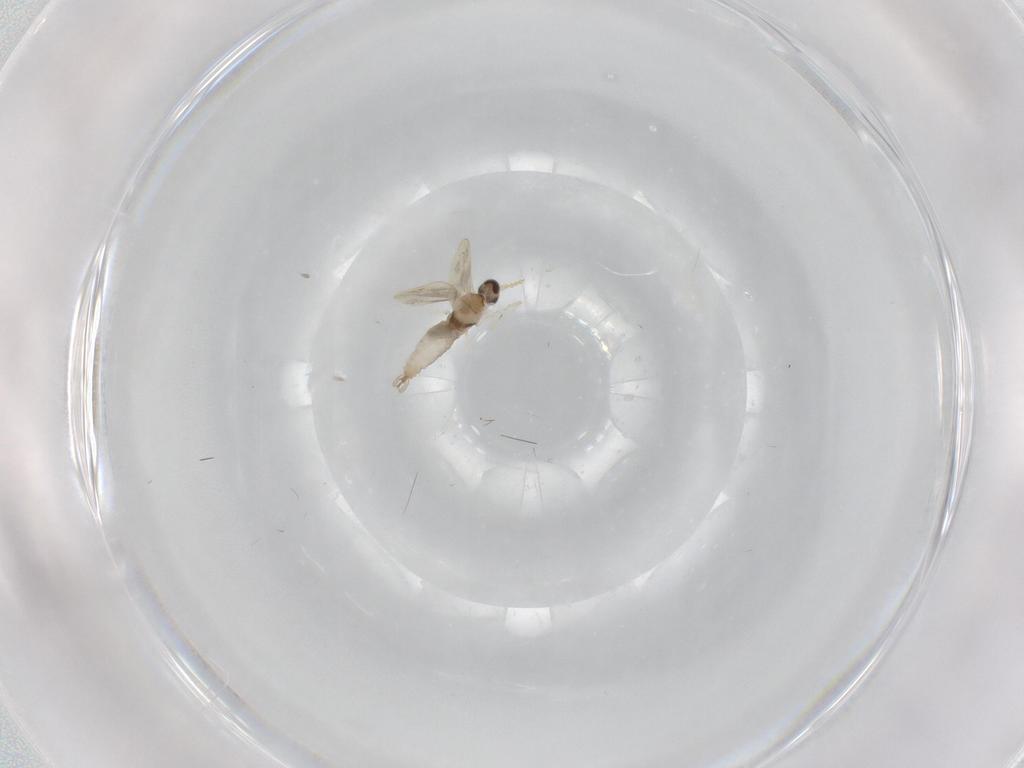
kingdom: Animalia
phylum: Arthropoda
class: Insecta
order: Diptera
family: Cecidomyiidae
